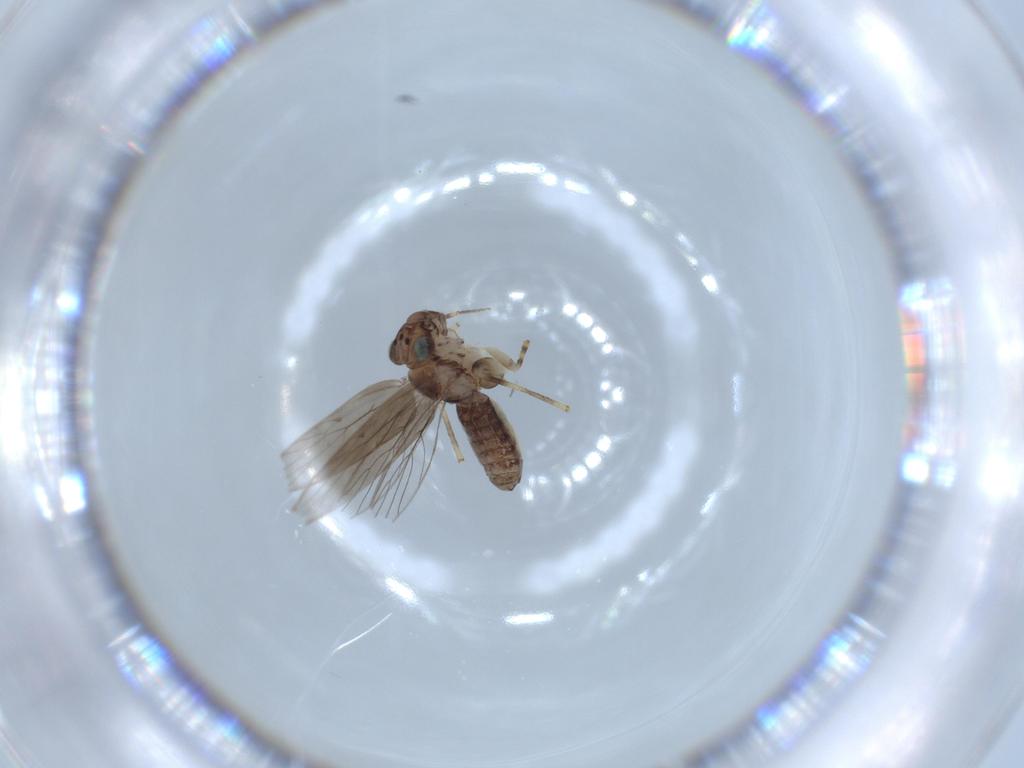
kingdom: Animalia
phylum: Arthropoda
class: Insecta
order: Psocodea
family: Lepidopsocidae
